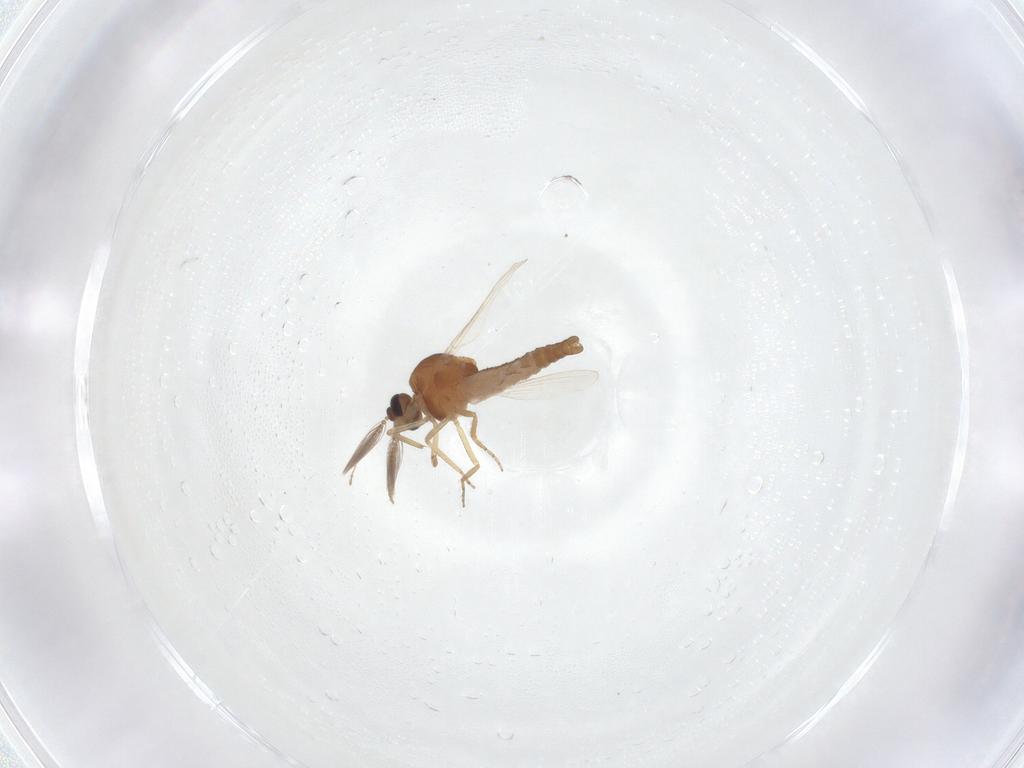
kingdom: Animalia
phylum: Arthropoda
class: Insecta
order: Diptera
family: Ceratopogonidae
